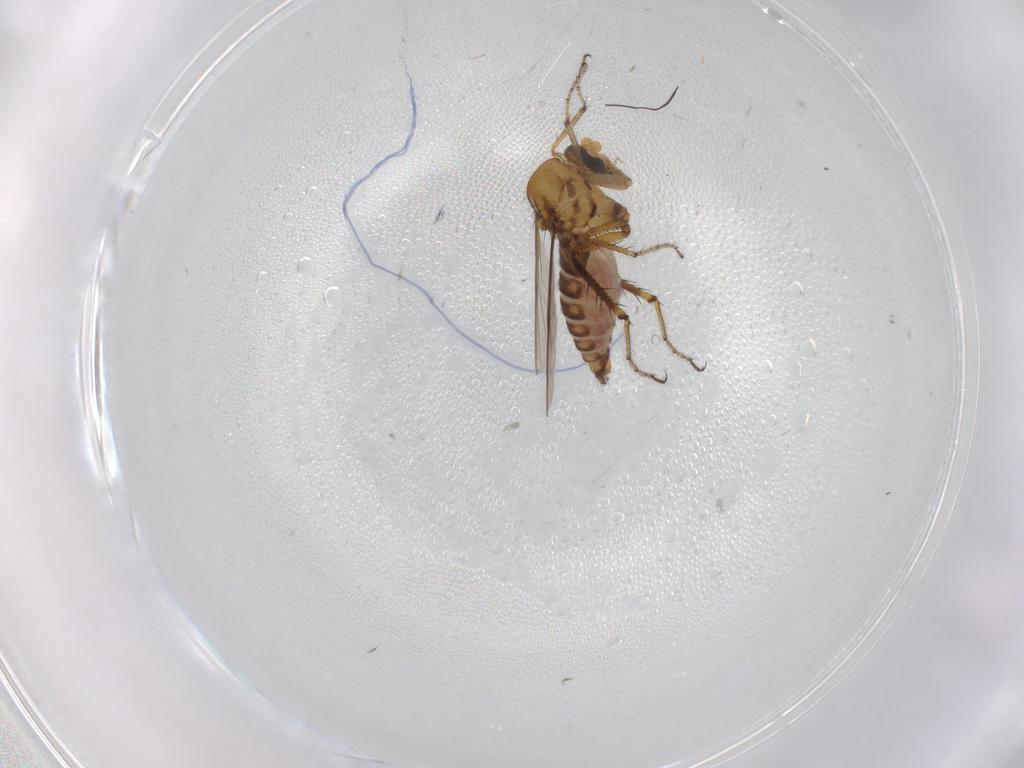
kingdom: Animalia
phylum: Arthropoda
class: Insecta
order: Diptera
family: Ceratopogonidae
